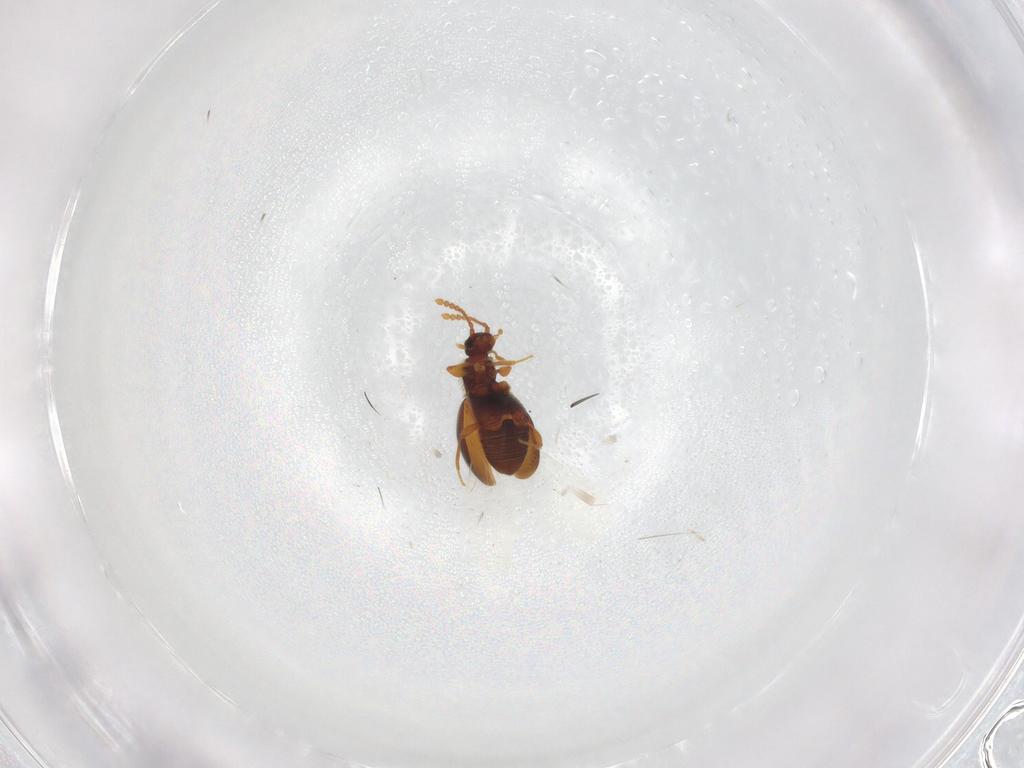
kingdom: Animalia
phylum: Arthropoda
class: Insecta
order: Coleoptera
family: Staphylinidae
